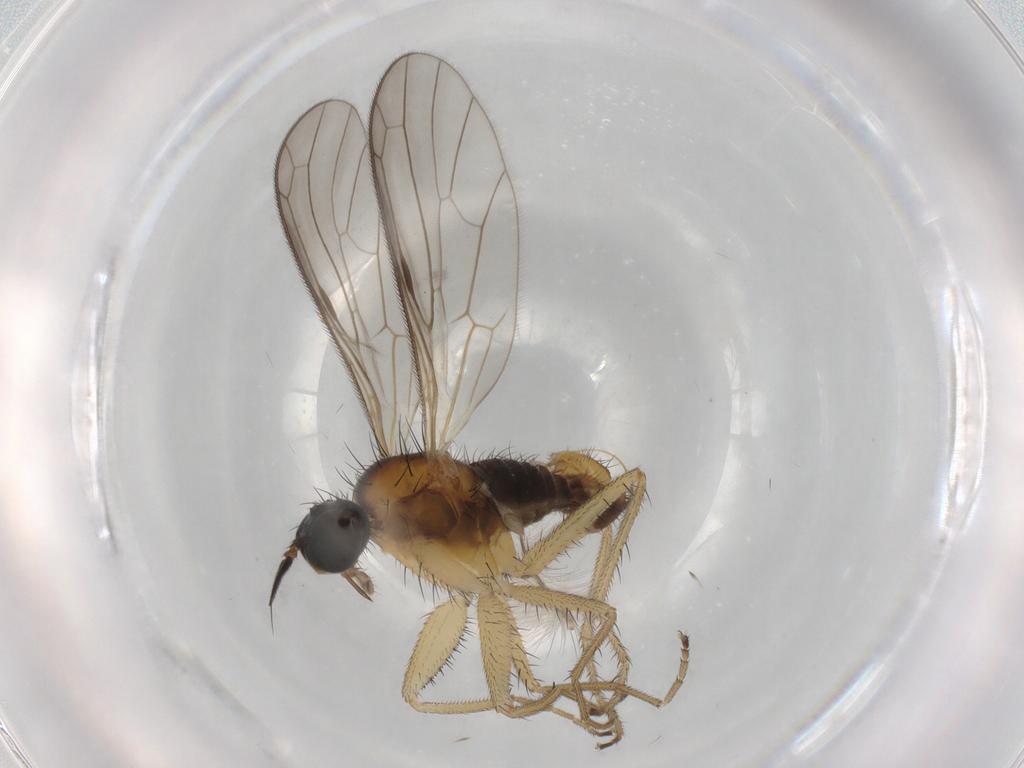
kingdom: Animalia
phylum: Arthropoda
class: Insecta
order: Diptera
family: Empididae
